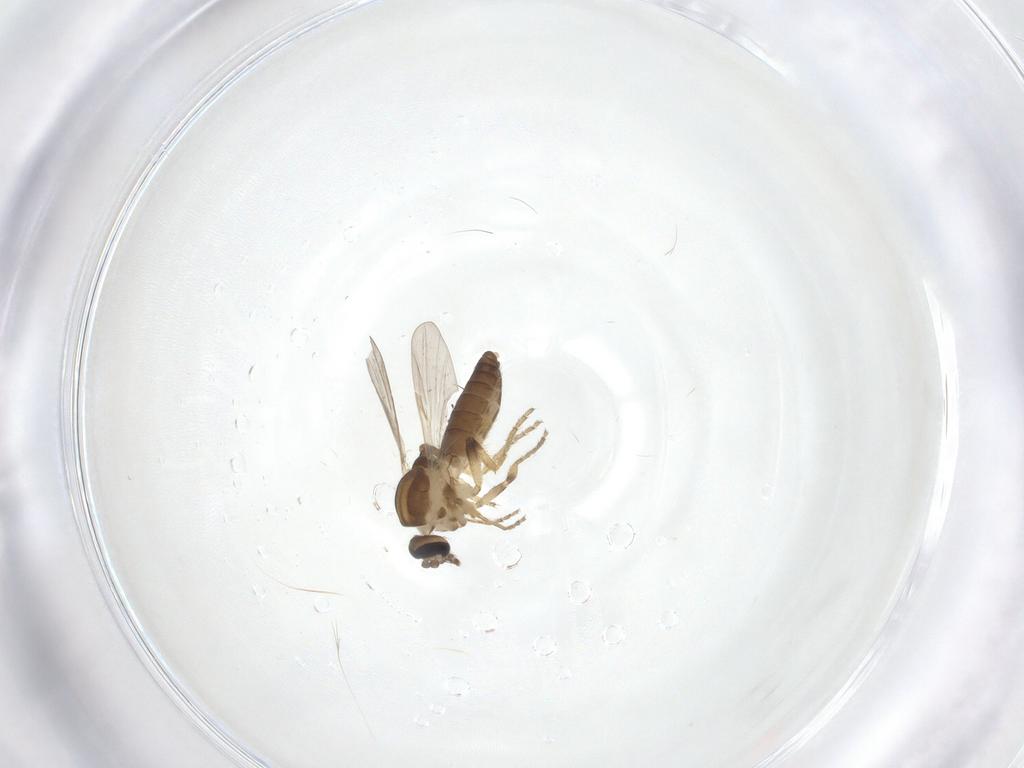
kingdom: Animalia
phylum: Arthropoda
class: Insecta
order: Diptera
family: Ceratopogonidae
